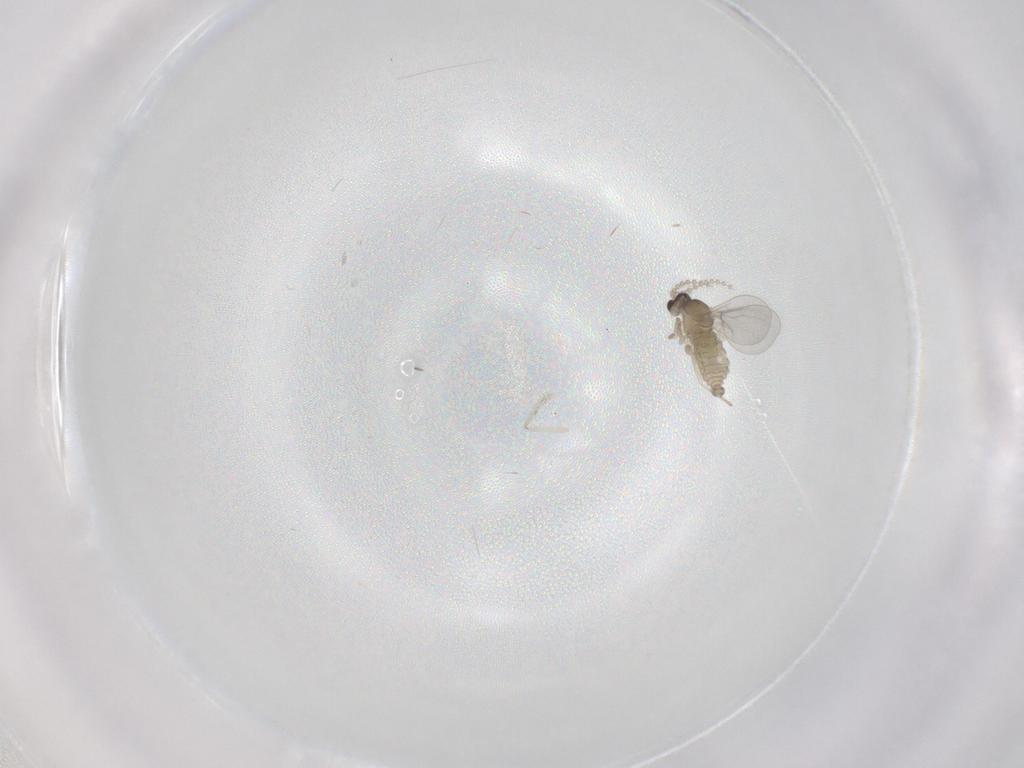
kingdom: Animalia
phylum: Arthropoda
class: Insecta
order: Diptera
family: Cecidomyiidae
